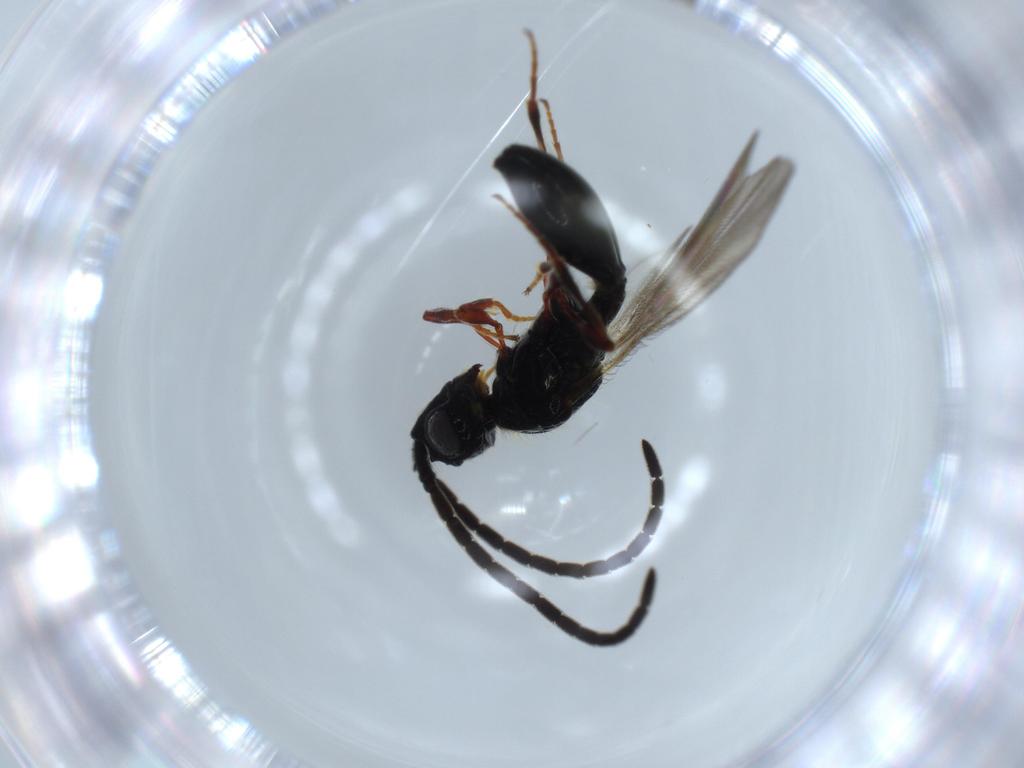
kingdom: Animalia
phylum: Arthropoda
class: Insecta
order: Hymenoptera
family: Diapriidae
